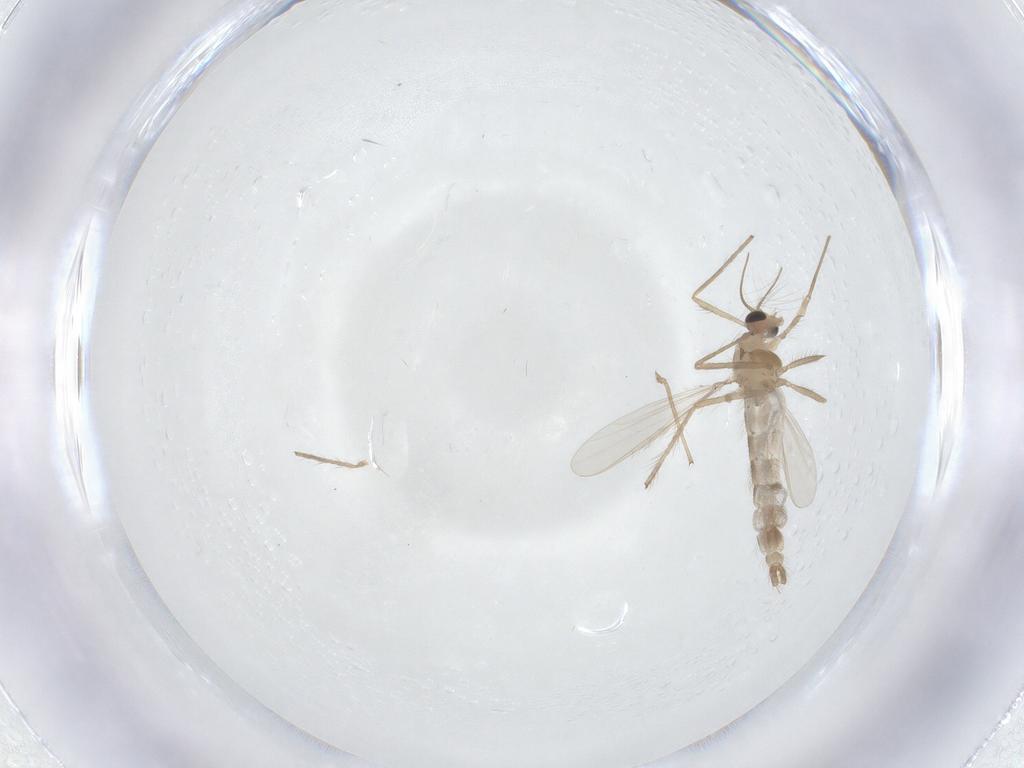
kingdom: Animalia
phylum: Arthropoda
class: Insecta
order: Diptera
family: Chironomidae
